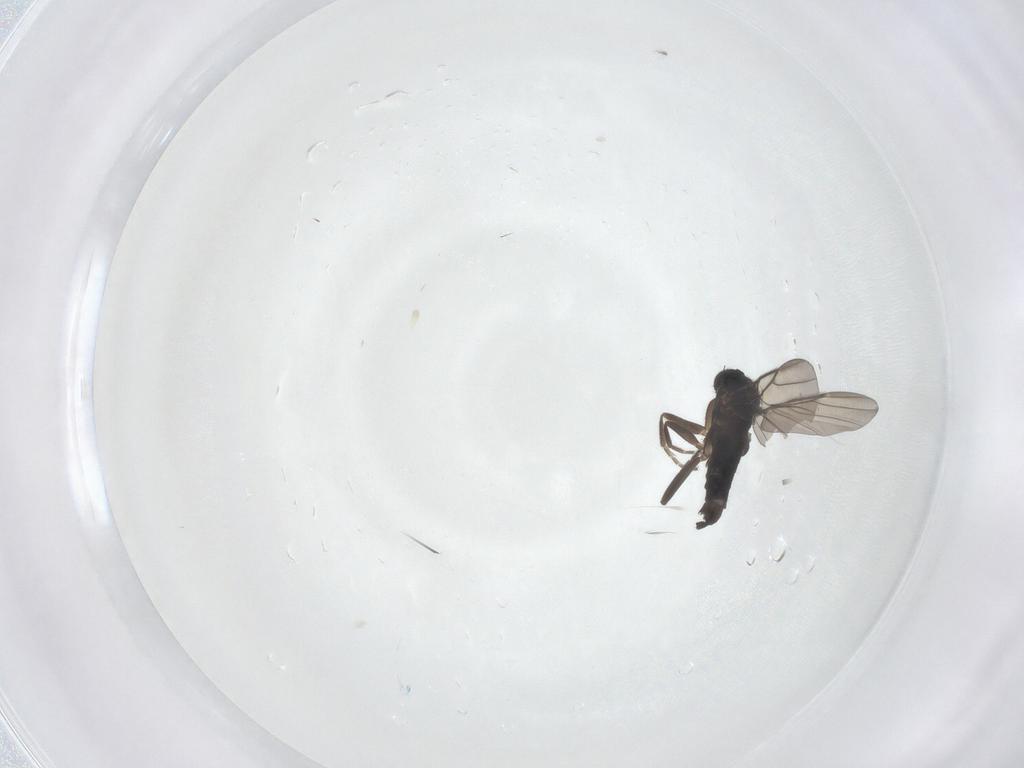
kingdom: Animalia
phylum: Arthropoda
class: Insecta
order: Diptera
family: Phoridae
